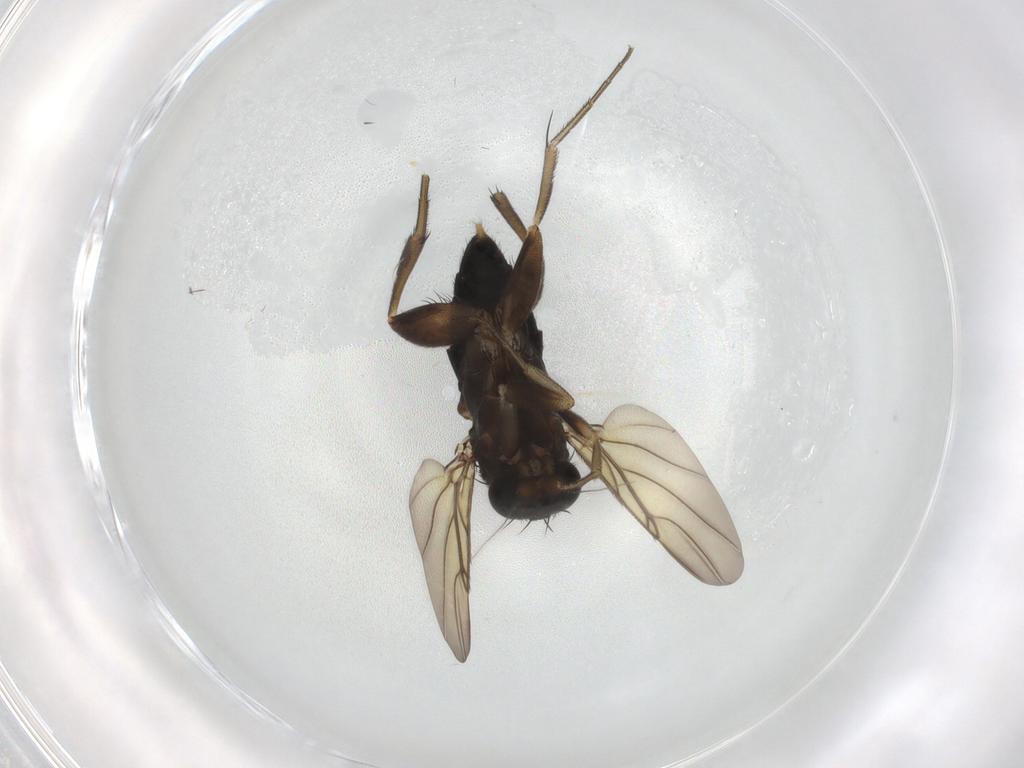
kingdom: Animalia
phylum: Arthropoda
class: Insecta
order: Diptera
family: Phoridae
